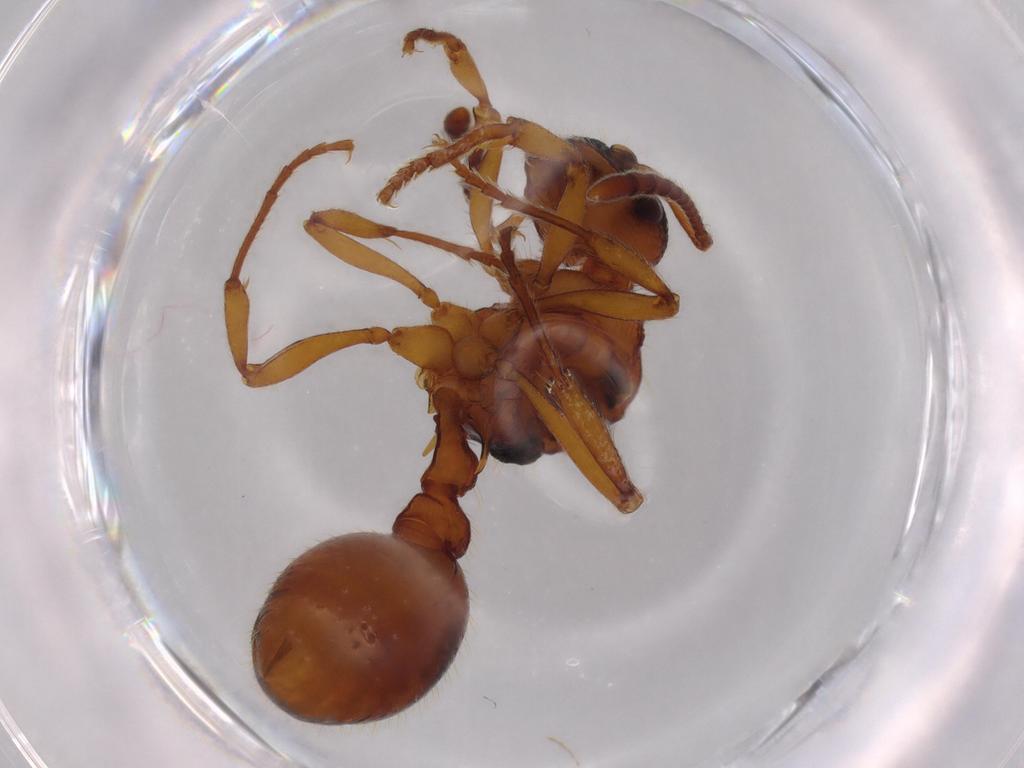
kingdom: Animalia
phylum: Arthropoda
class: Insecta
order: Hymenoptera
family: Formicidae
